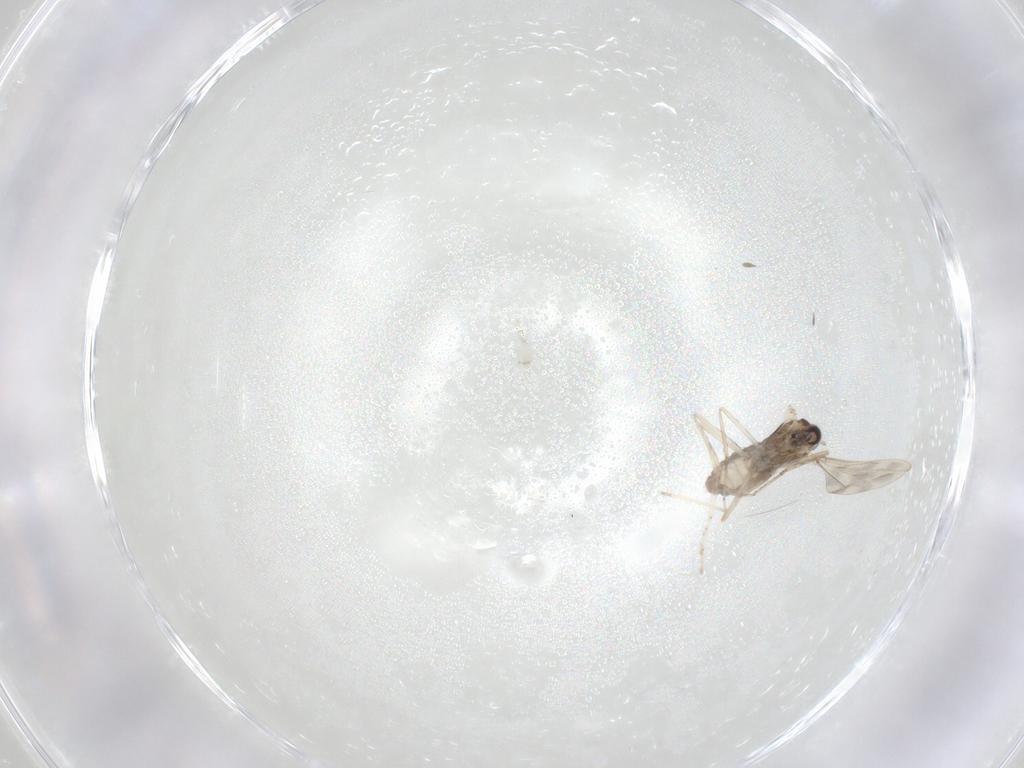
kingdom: Animalia
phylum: Arthropoda
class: Insecta
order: Diptera
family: Cecidomyiidae
